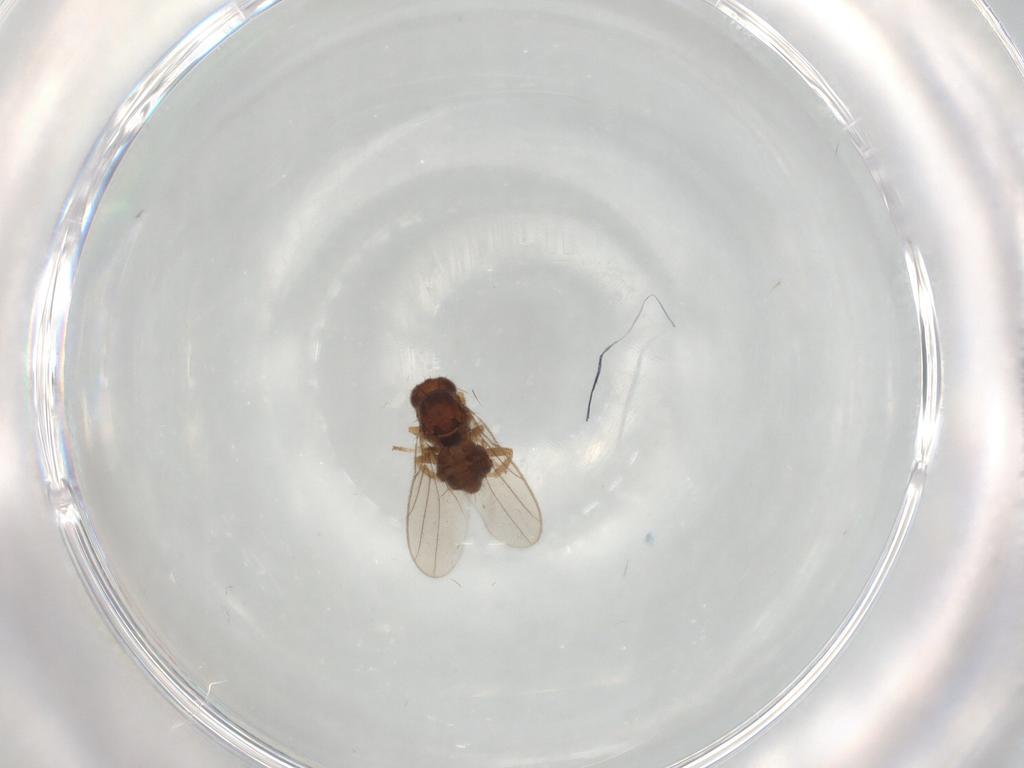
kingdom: Animalia
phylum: Arthropoda
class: Insecta
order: Diptera
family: Chloropidae
